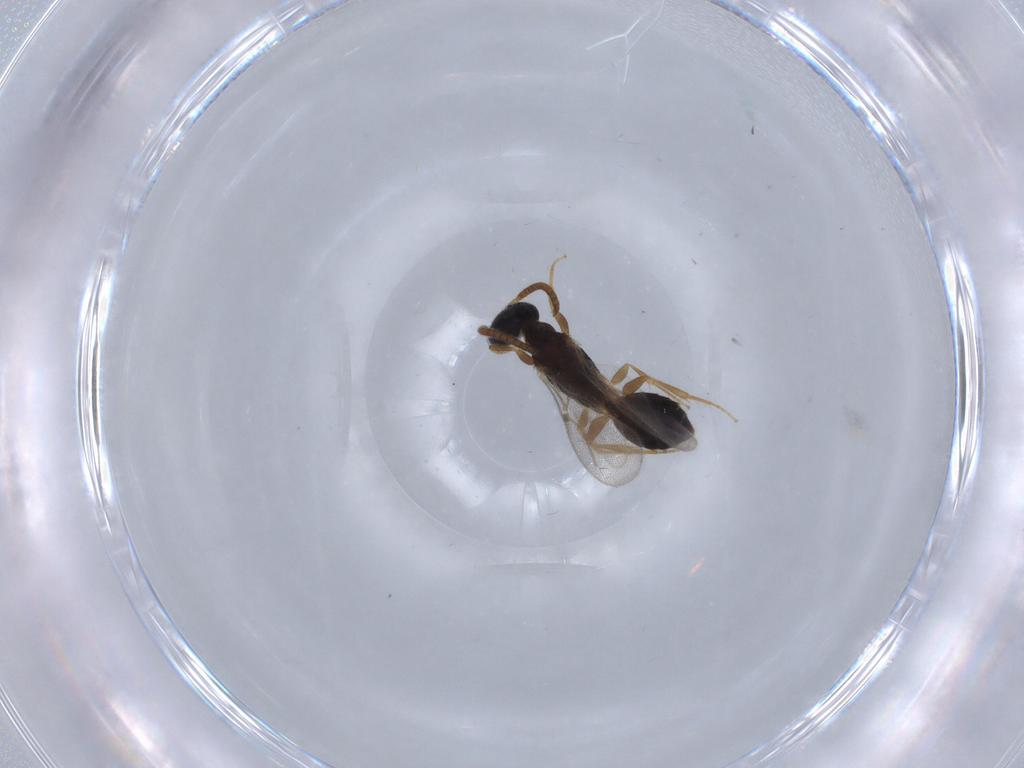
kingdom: Animalia
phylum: Arthropoda
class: Insecta
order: Hymenoptera
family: Bethylidae
